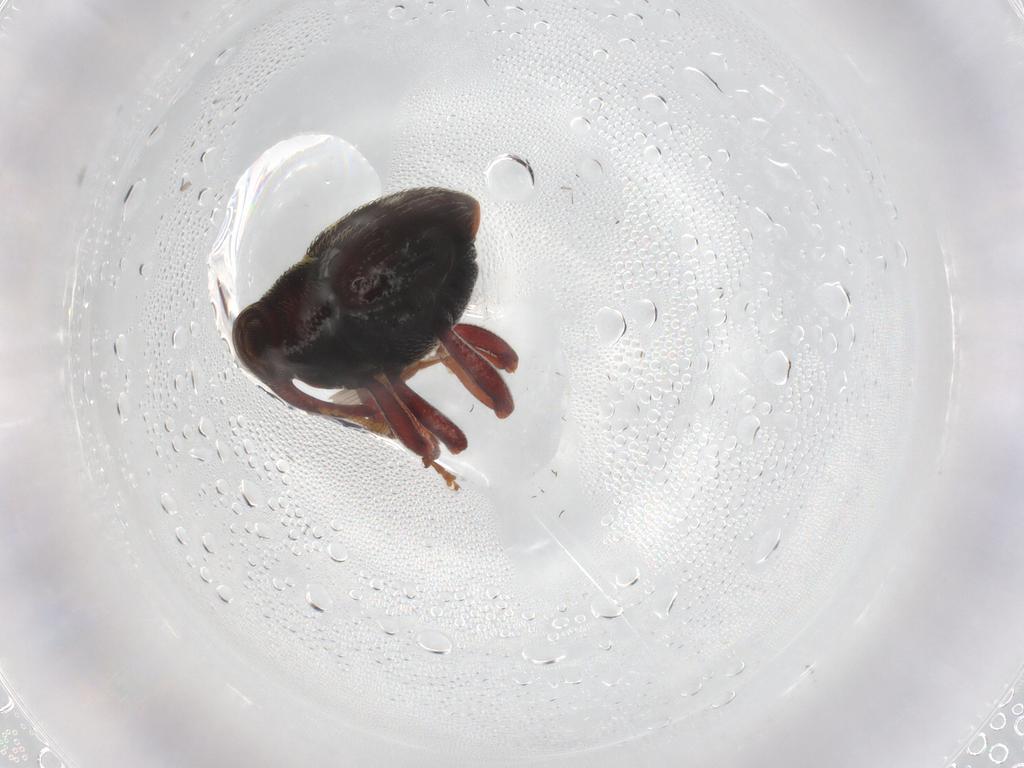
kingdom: Animalia
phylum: Arthropoda
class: Insecta
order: Coleoptera
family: Curculionidae
